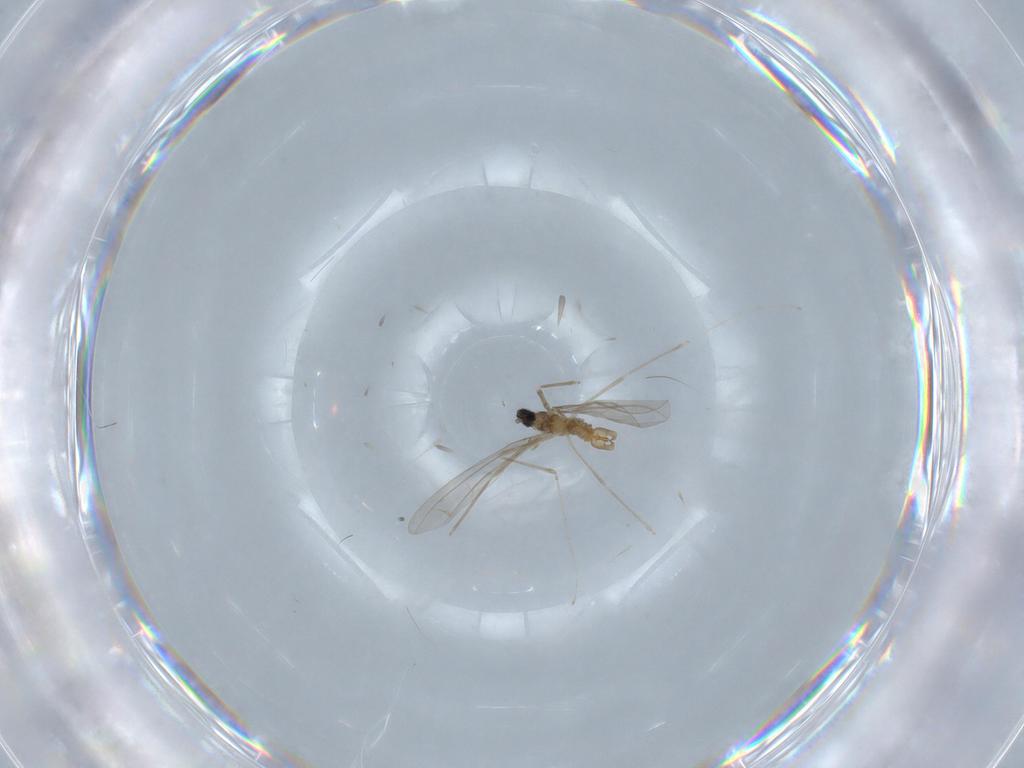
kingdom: Animalia
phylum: Arthropoda
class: Insecta
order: Diptera
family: Cecidomyiidae
